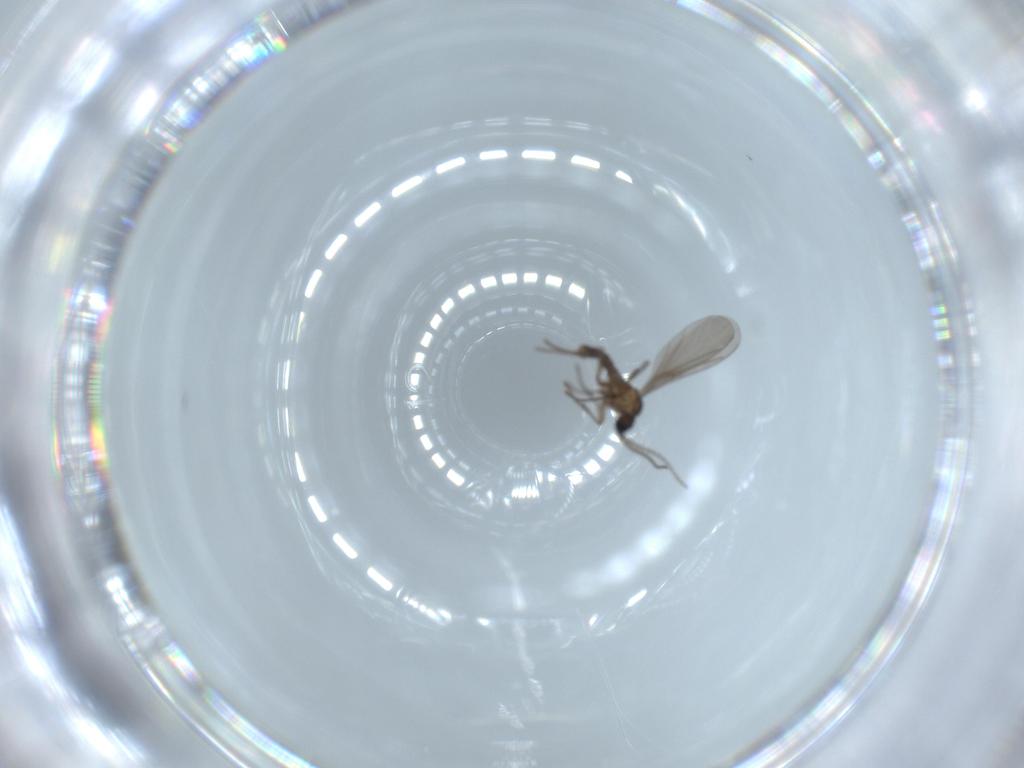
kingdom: Animalia
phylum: Arthropoda
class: Insecta
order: Diptera
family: Chironomidae
